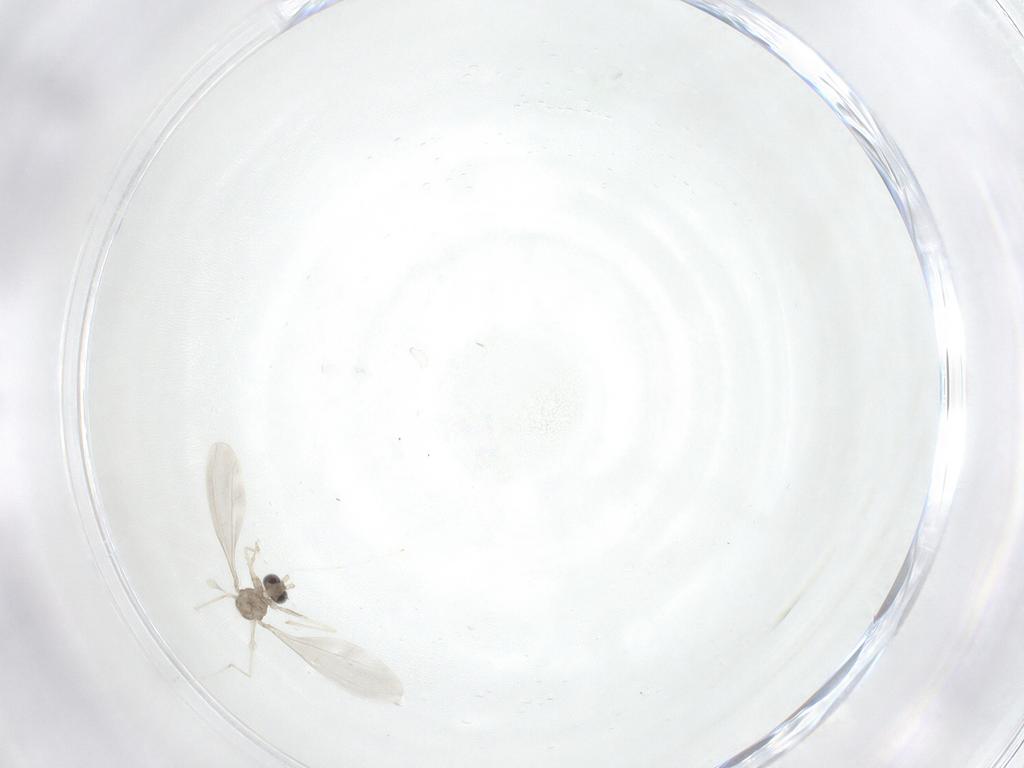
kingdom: Animalia
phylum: Arthropoda
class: Insecta
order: Diptera
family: Cecidomyiidae
